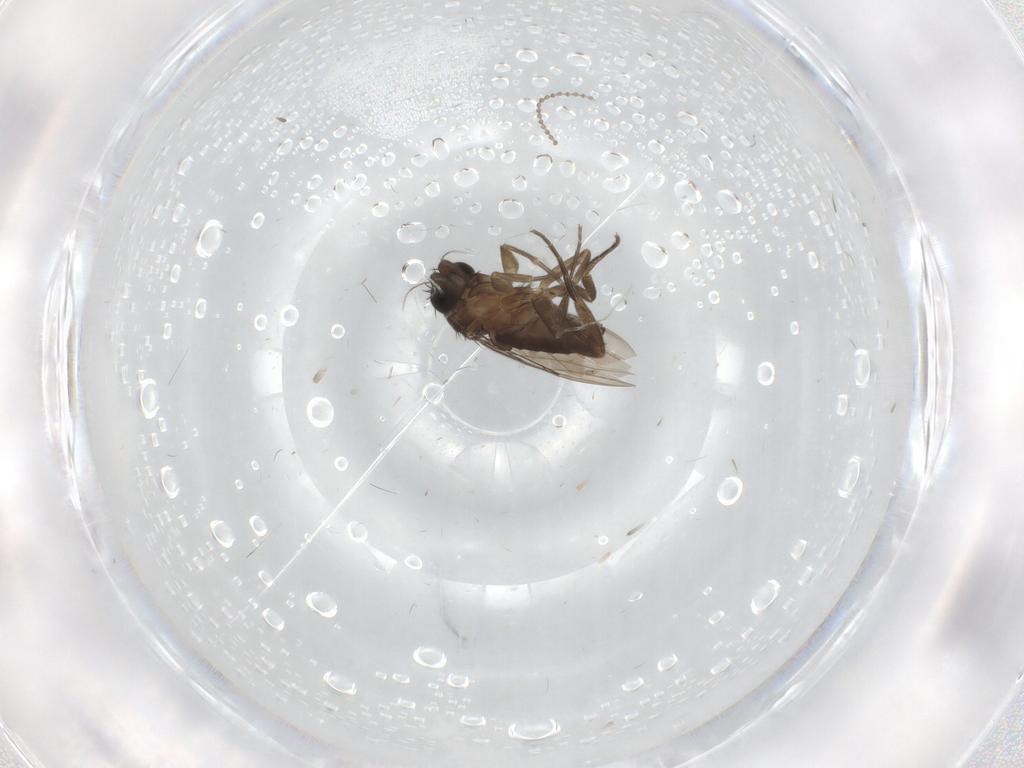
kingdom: Animalia
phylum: Arthropoda
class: Insecta
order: Diptera
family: Phoridae
